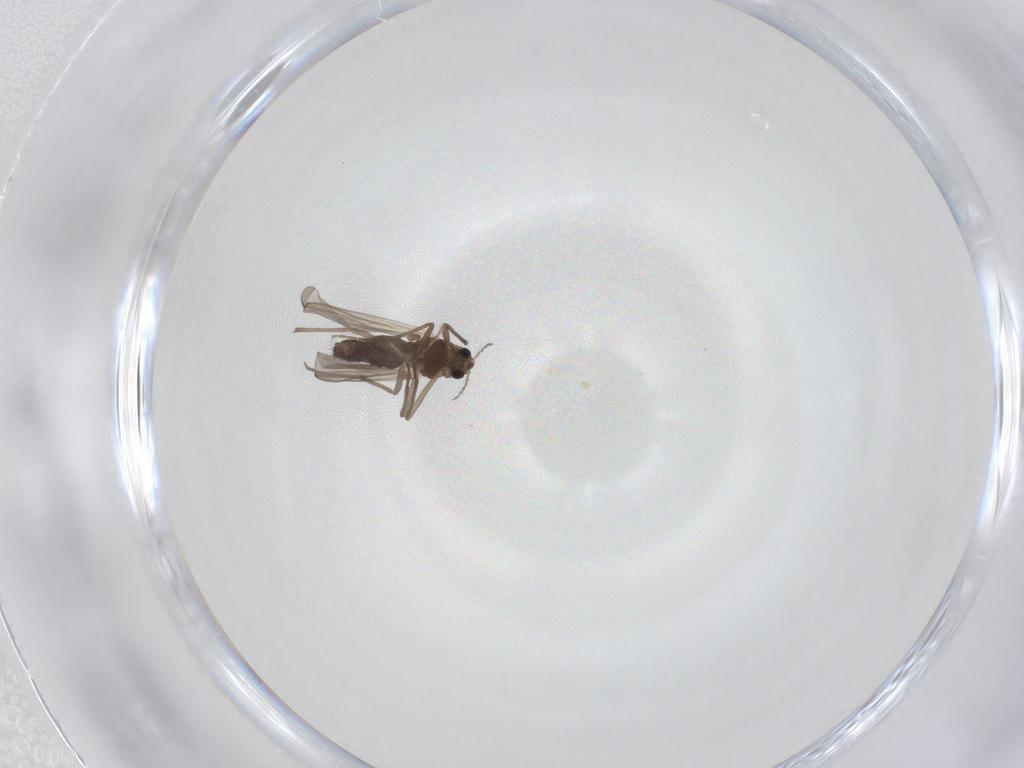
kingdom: Animalia
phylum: Arthropoda
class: Insecta
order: Diptera
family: Chironomidae
